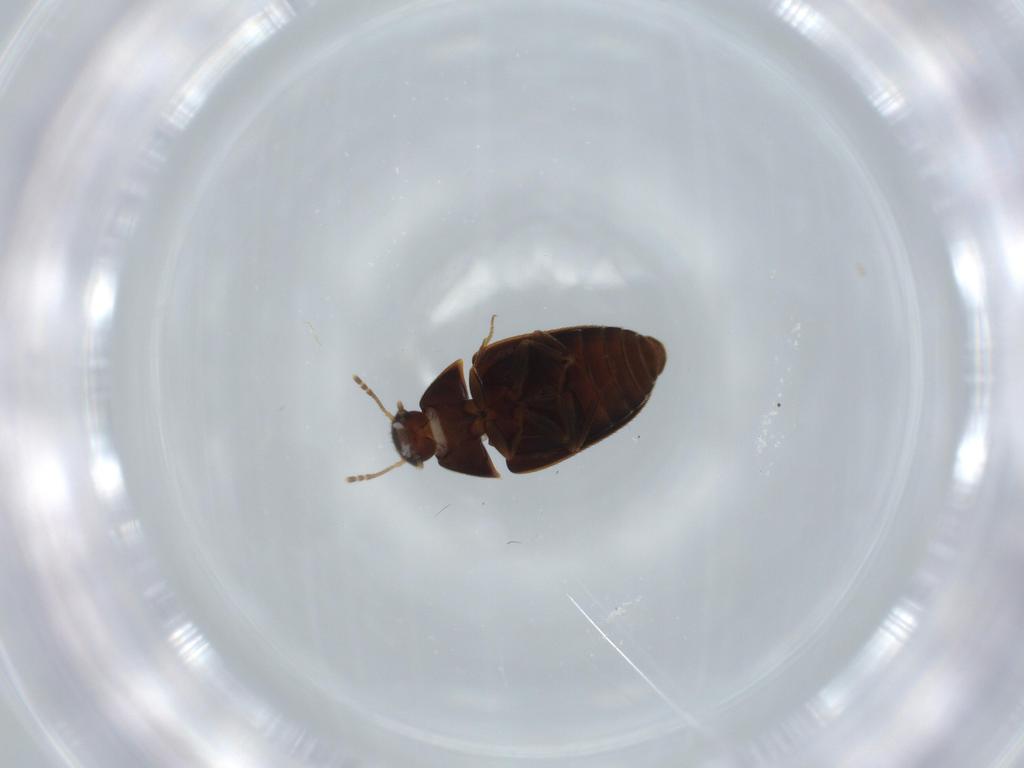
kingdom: Animalia
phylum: Arthropoda
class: Insecta
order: Coleoptera
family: Mycetophagidae
